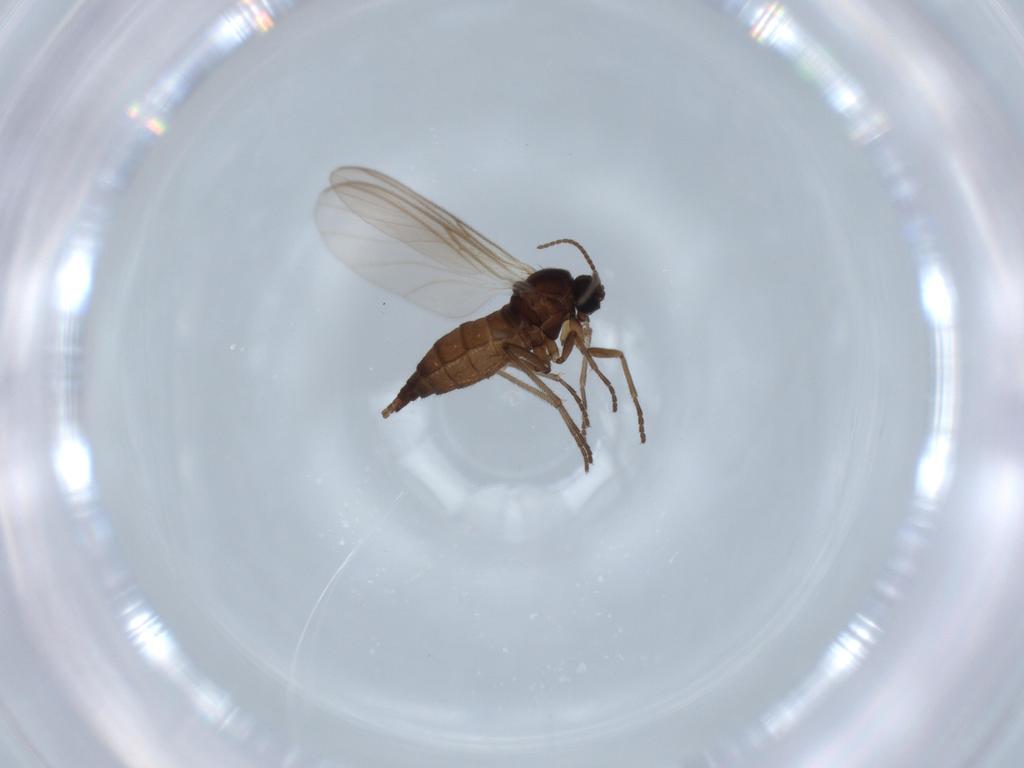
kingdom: Animalia
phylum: Arthropoda
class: Insecta
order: Diptera
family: Sciaridae
